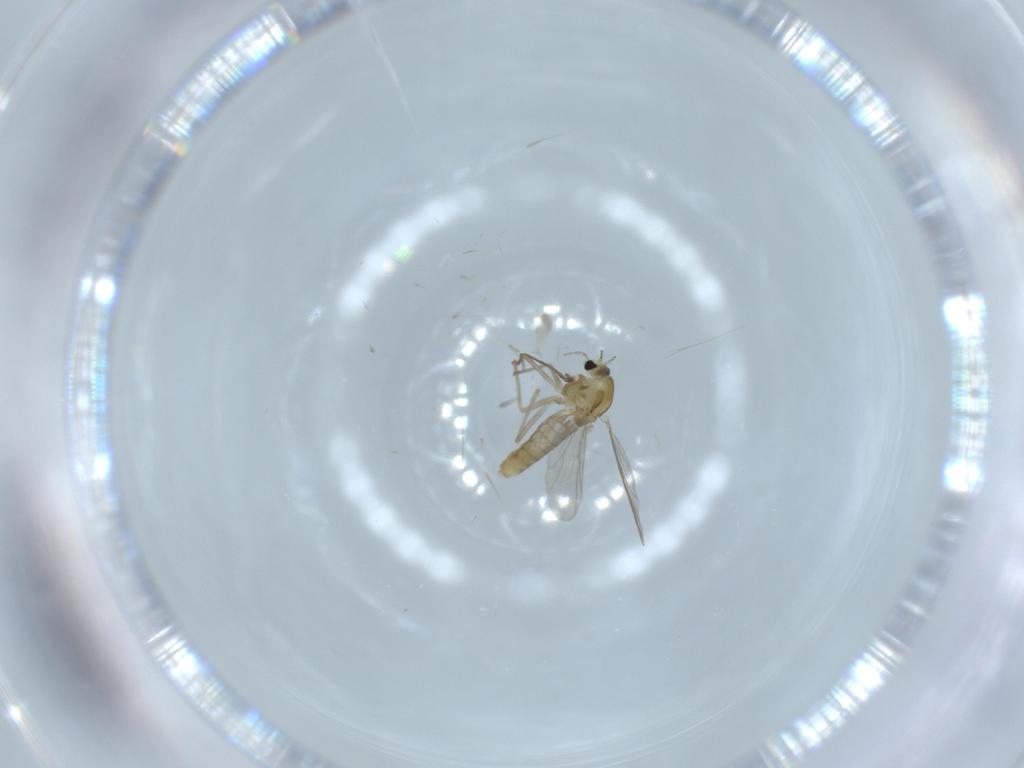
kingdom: Animalia
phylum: Arthropoda
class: Insecta
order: Diptera
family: Chironomidae
